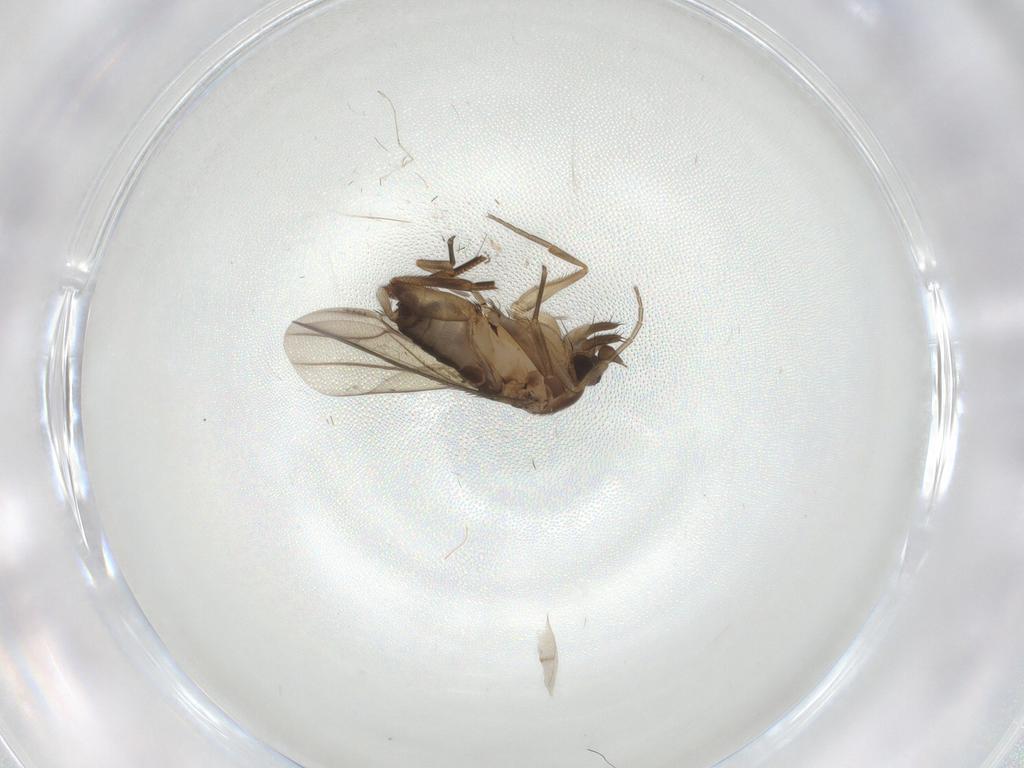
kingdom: Animalia
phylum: Arthropoda
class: Insecta
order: Diptera
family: Phoridae
